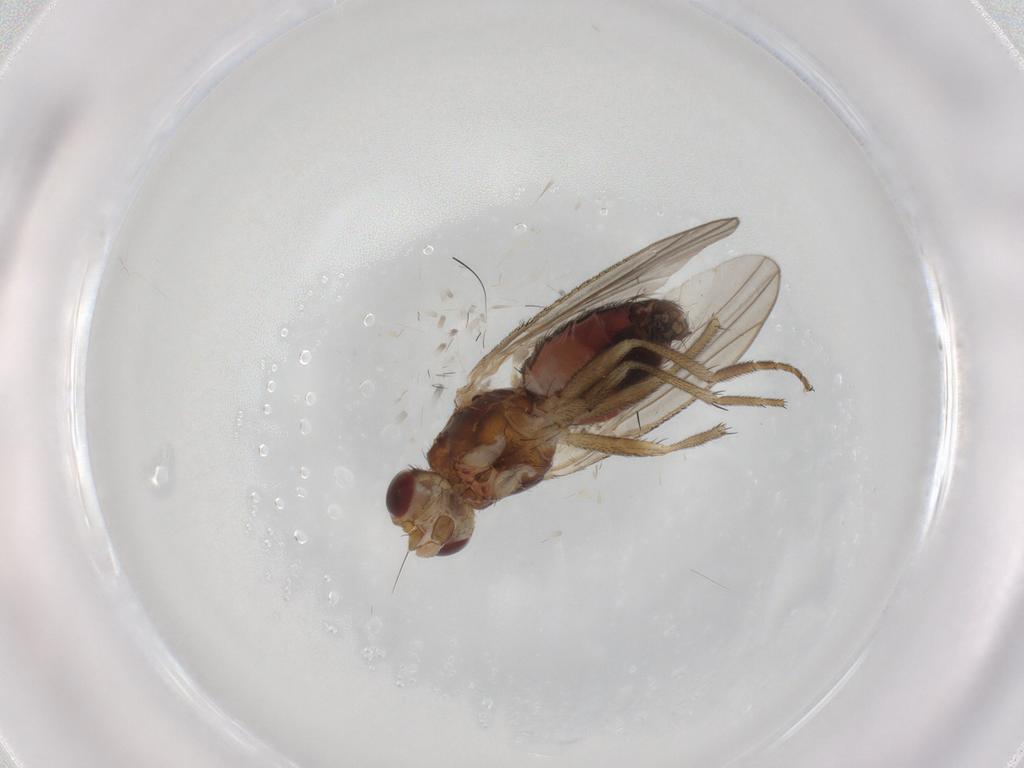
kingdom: Animalia
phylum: Arthropoda
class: Insecta
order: Diptera
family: Heleomyzidae
